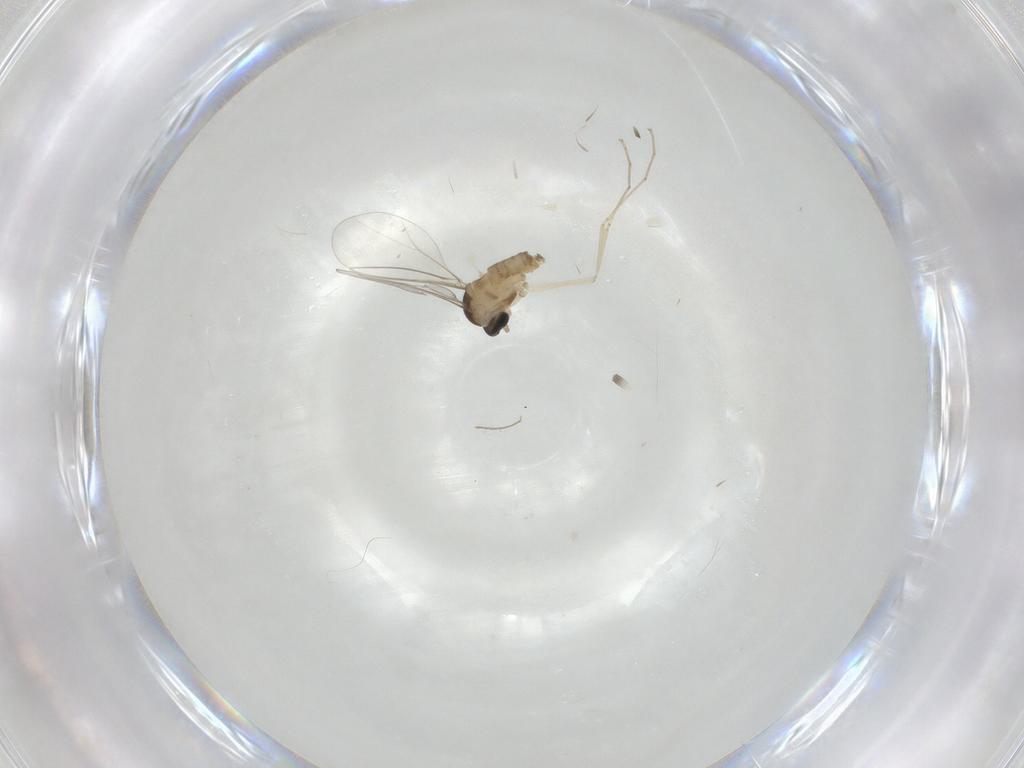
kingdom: Animalia
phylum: Arthropoda
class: Insecta
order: Diptera
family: Cecidomyiidae
